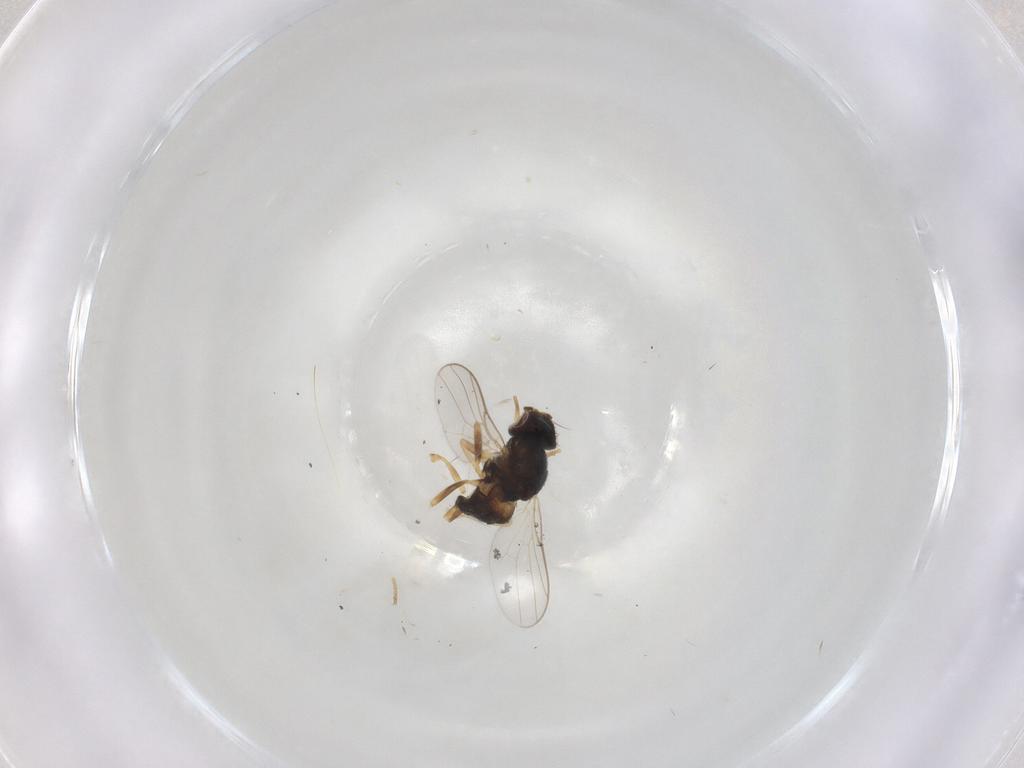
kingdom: Animalia
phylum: Arthropoda
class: Insecta
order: Diptera
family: Chloropidae
